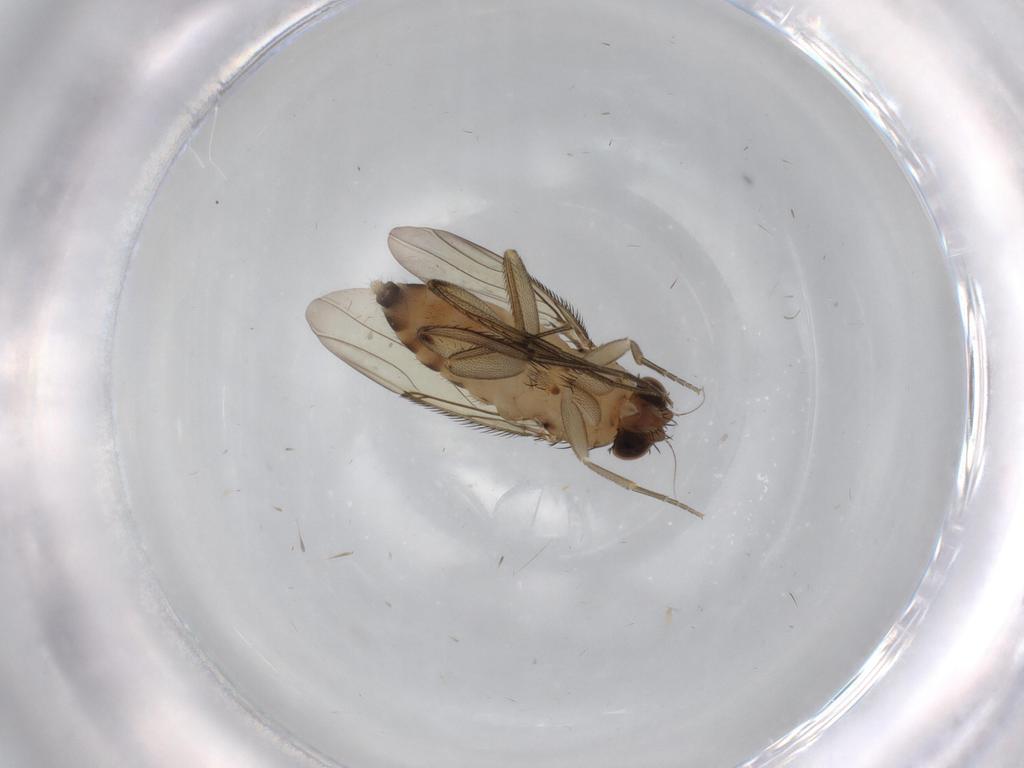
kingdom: Animalia
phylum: Arthropoda
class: Insecta
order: Diptera
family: Phoridae
